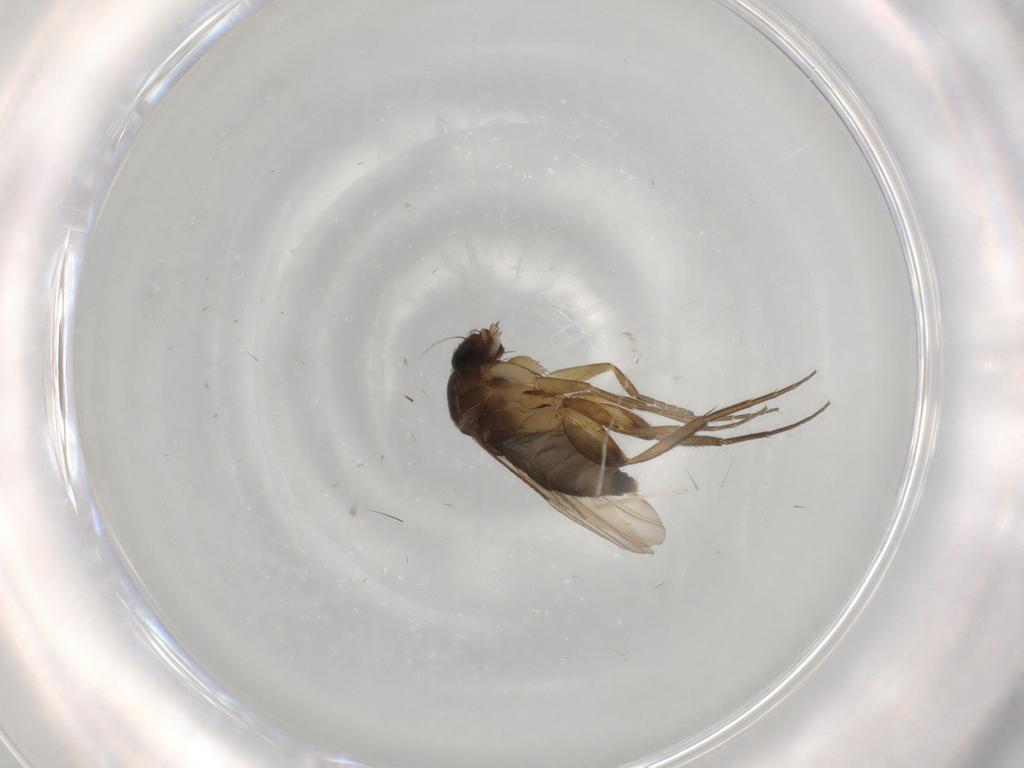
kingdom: Animalia
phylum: Arthropoda
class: Insecta
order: Diptera
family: Phoridae
